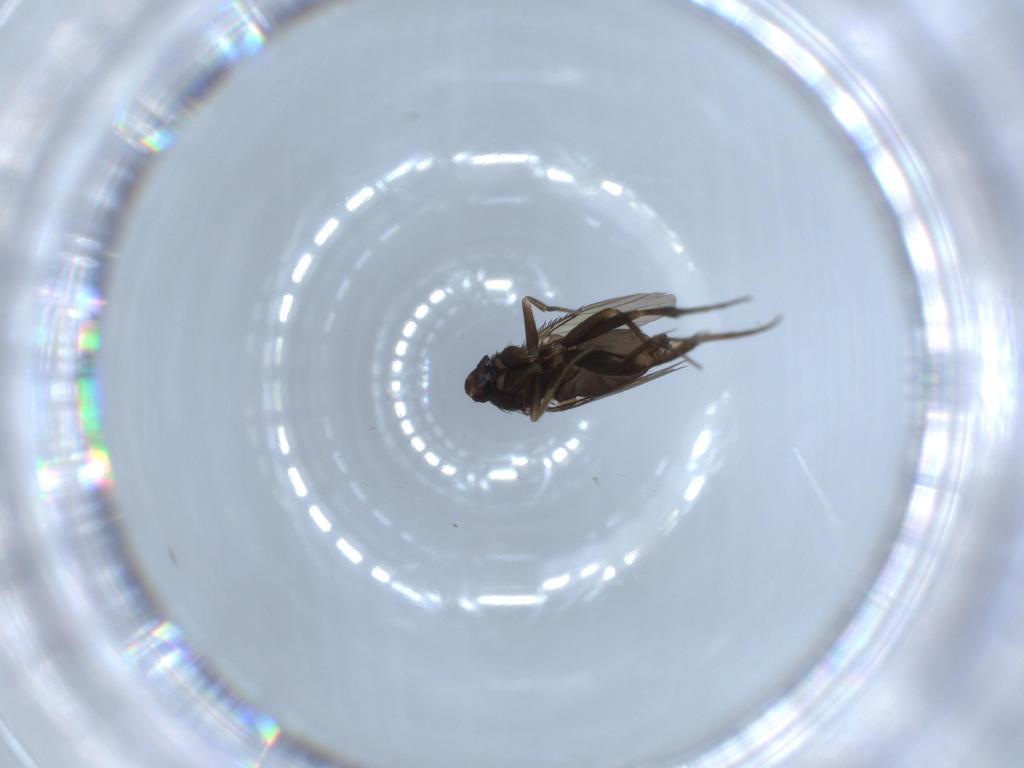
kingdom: Animalia
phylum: Arthropoda
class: Insecta
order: Diptera
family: Phoridae
